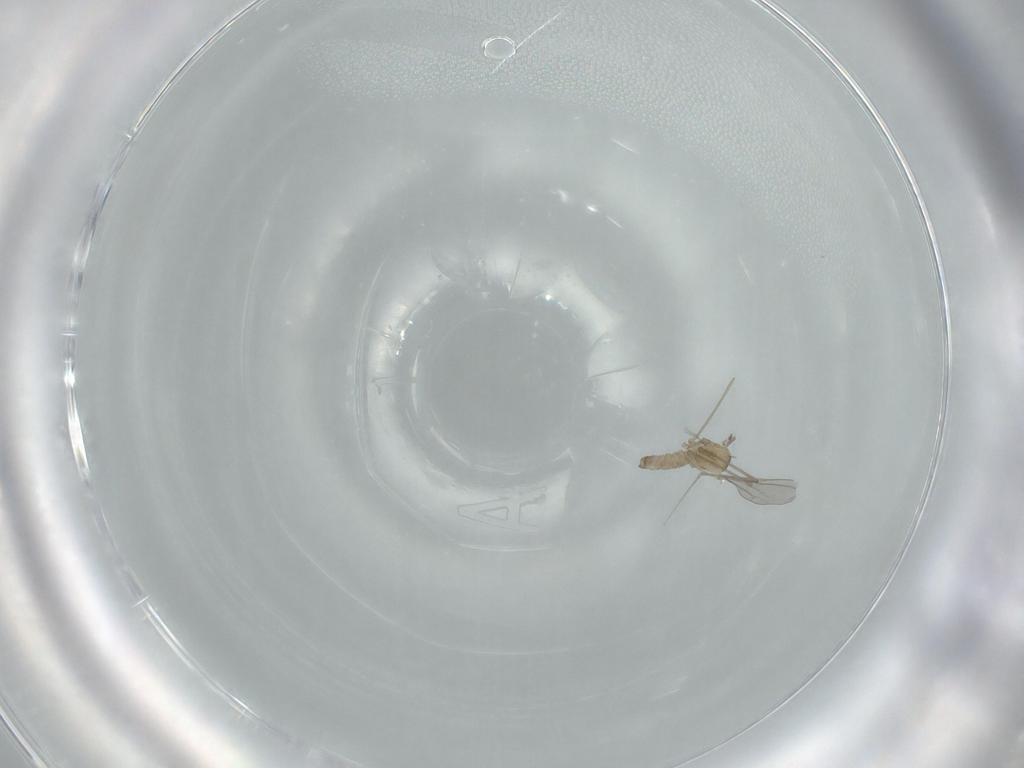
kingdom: Animalia
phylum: Arthropoda
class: Insecta
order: Diptera
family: Cecidomyiidae
